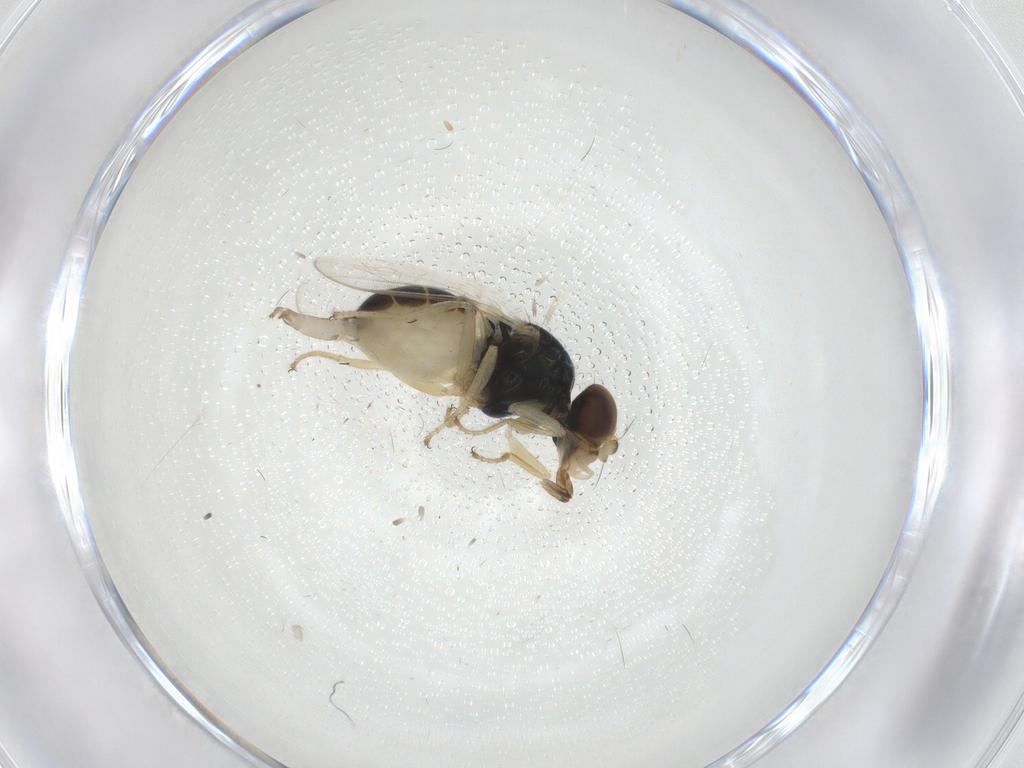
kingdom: Animalia
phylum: Arthropoda
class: Insecta
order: Diptera
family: Chloropidae
